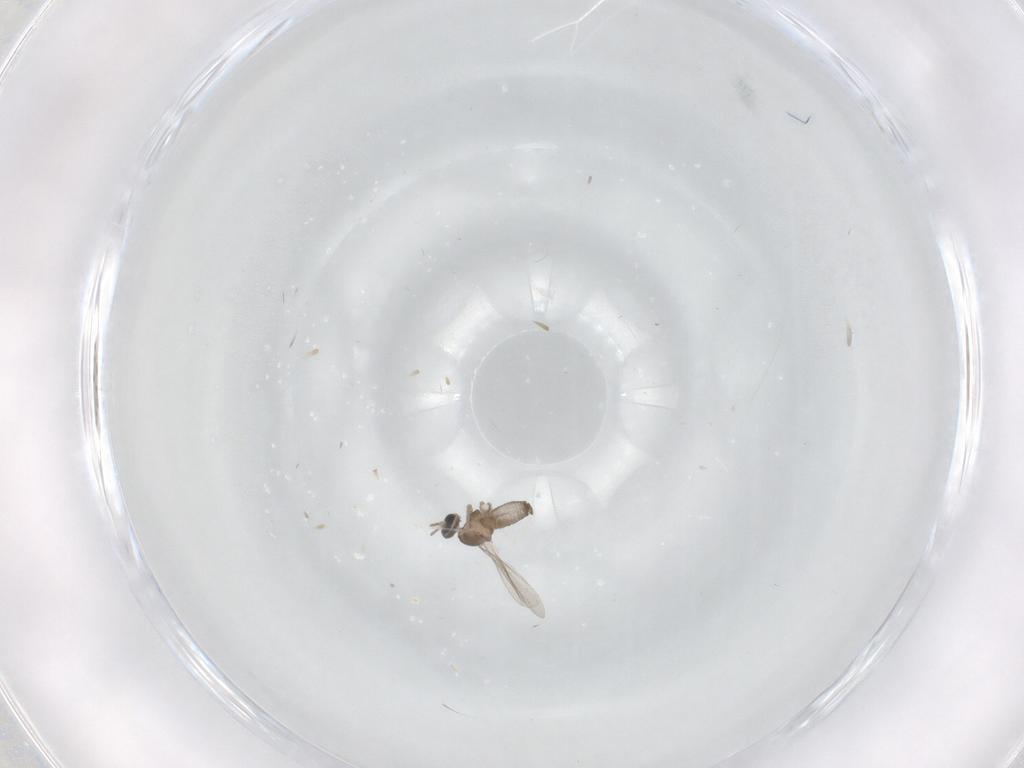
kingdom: Animalia
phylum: Arthropoda
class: Insecta
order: Diptera
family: Cecidomyiidae
